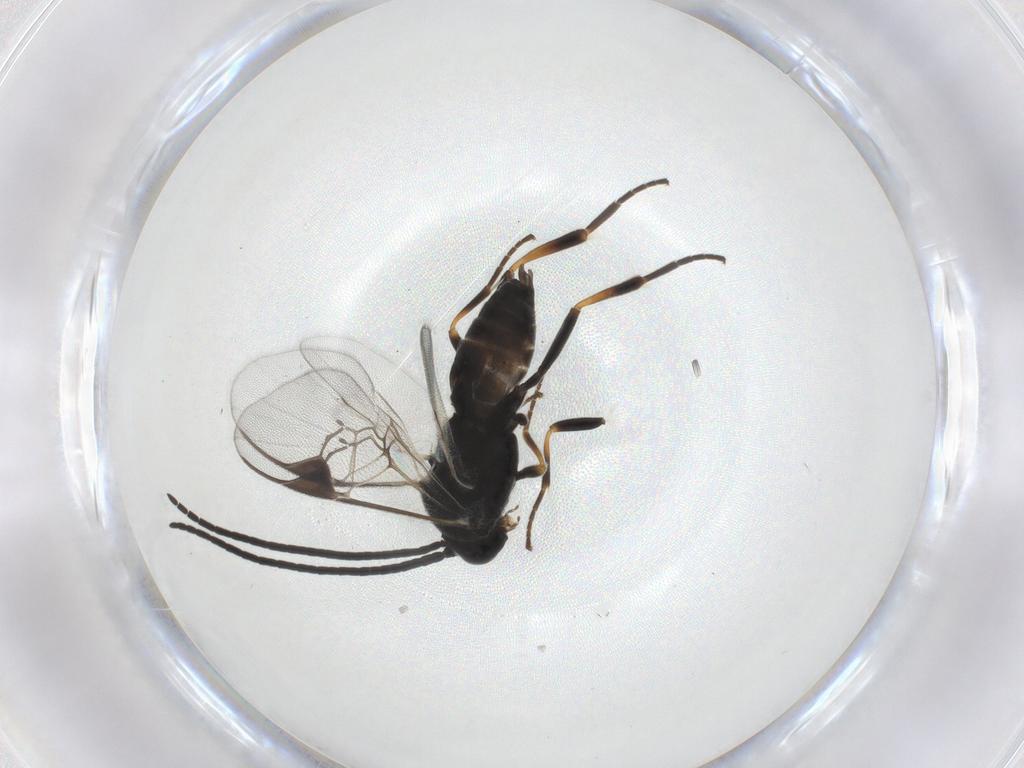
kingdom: Animalia
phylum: Arthropoda
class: Insecta
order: Hymenoptera
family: Braconidae
